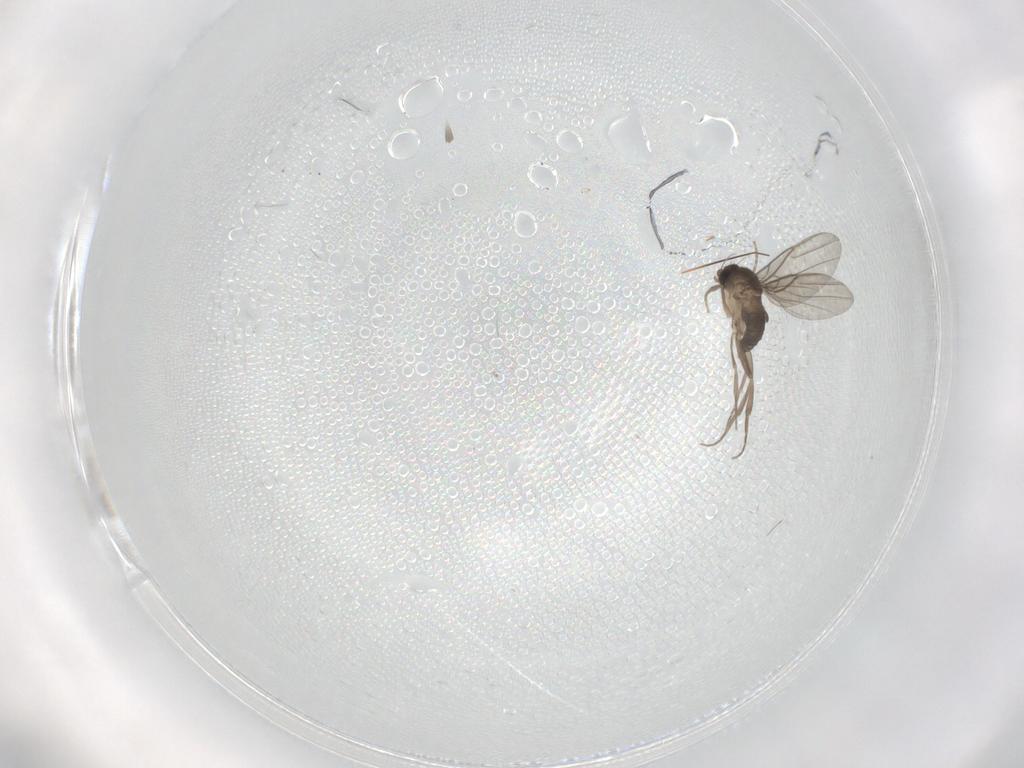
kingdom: Animalia
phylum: Arthropoda
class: Insecta
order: Diptera
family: Psychodidae
